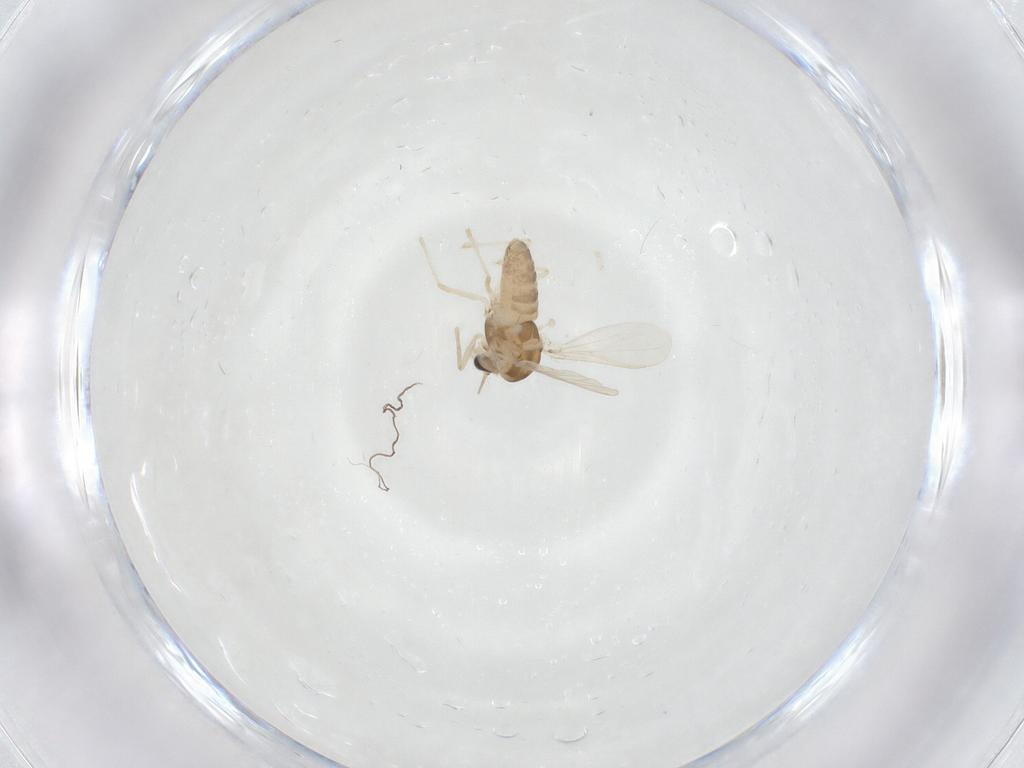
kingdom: Animalia
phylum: Arthropoda
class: Insecta
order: Diptera
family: Chironomidae
